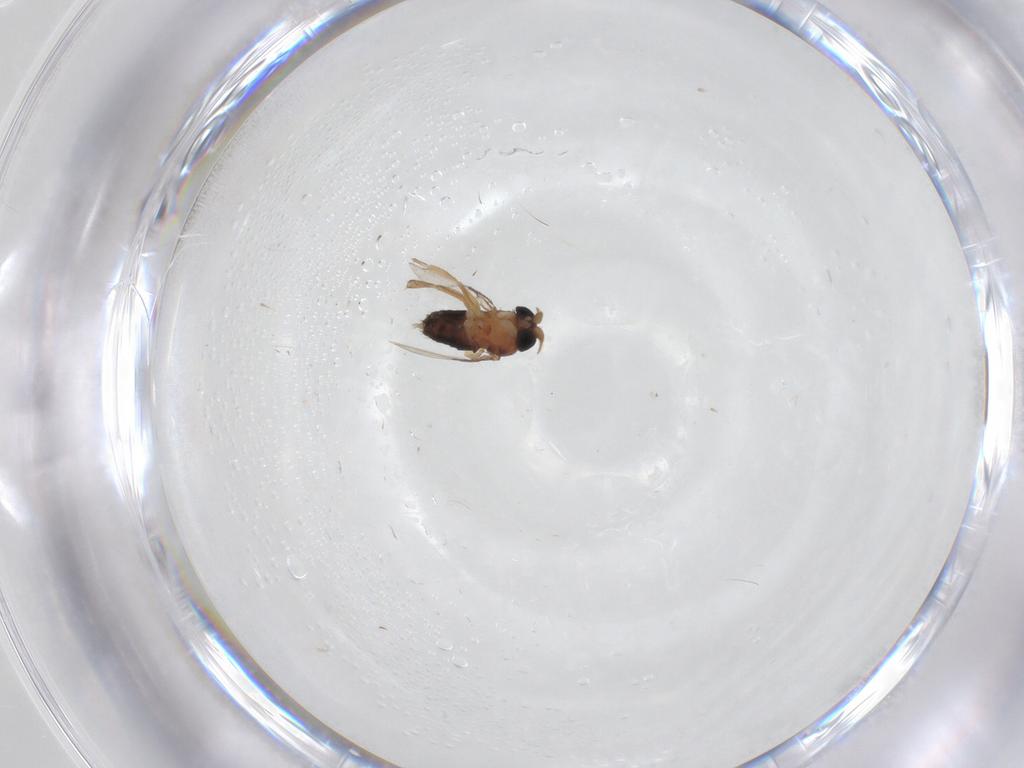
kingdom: Animalia
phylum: Arthropoda
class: Insecta
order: Diptera
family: Phoridae
